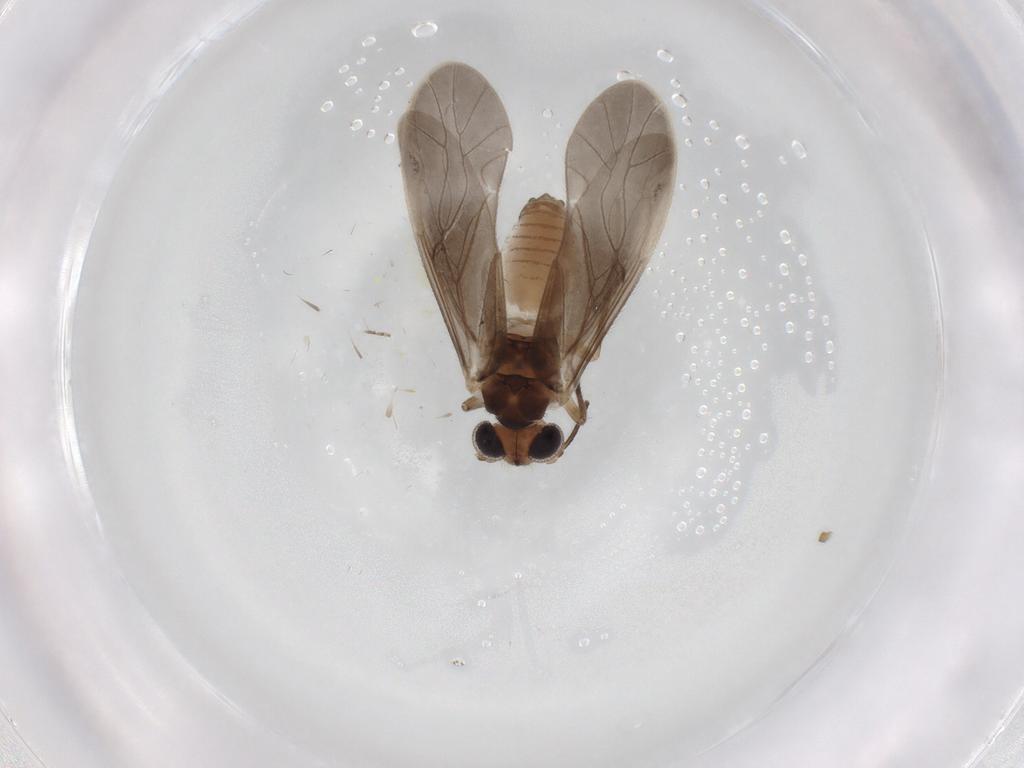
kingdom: Animalia
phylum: Arthropoda
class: Insecta
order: Psocodea
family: Caeciliusidae
